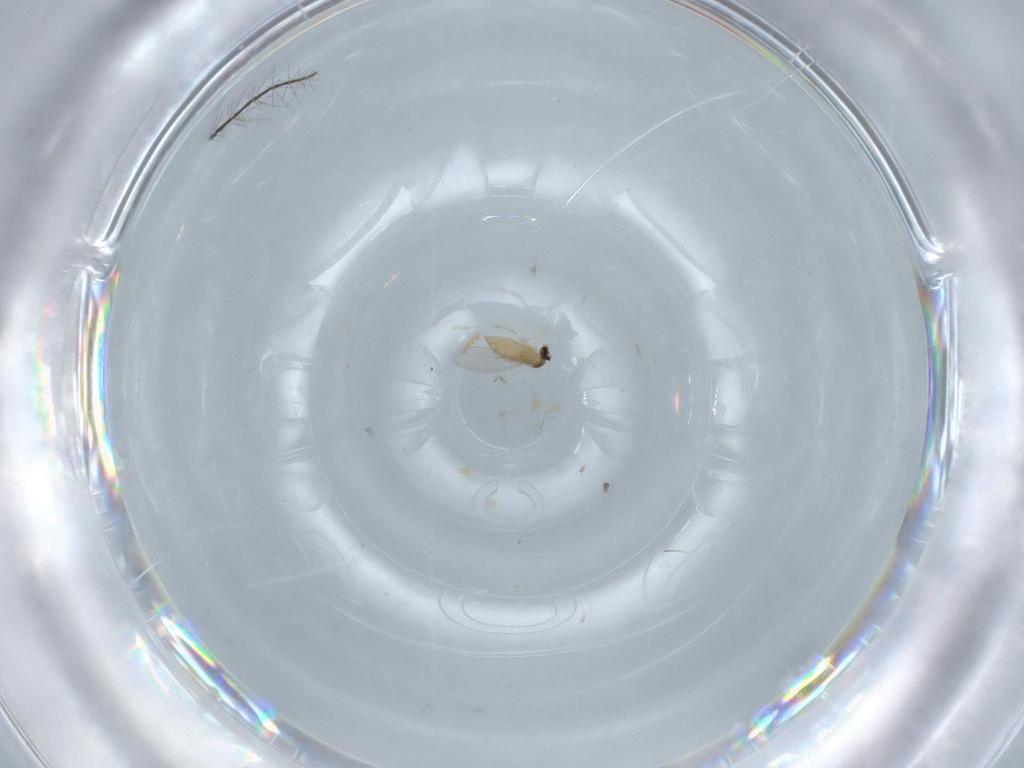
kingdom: Animalia
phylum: Arthropoda
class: Insecta
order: Diptera
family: Cecidomyiidae
